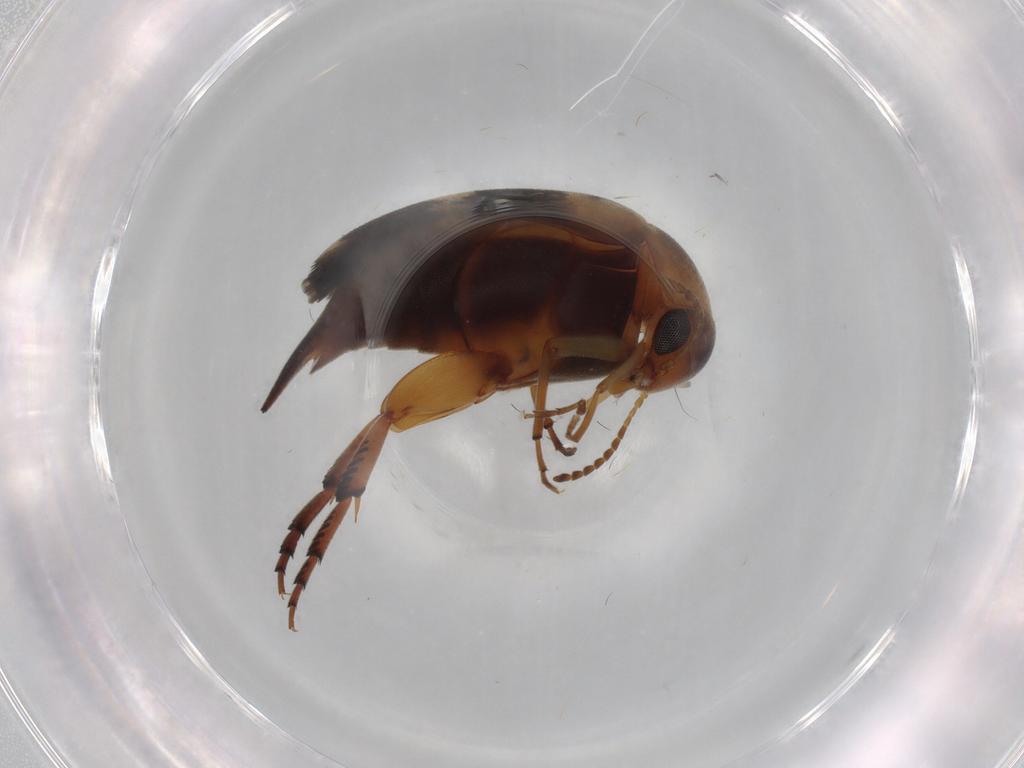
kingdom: Animalia
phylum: Arthropoda
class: Insecta
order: Coleoptera
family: Mordellidae
